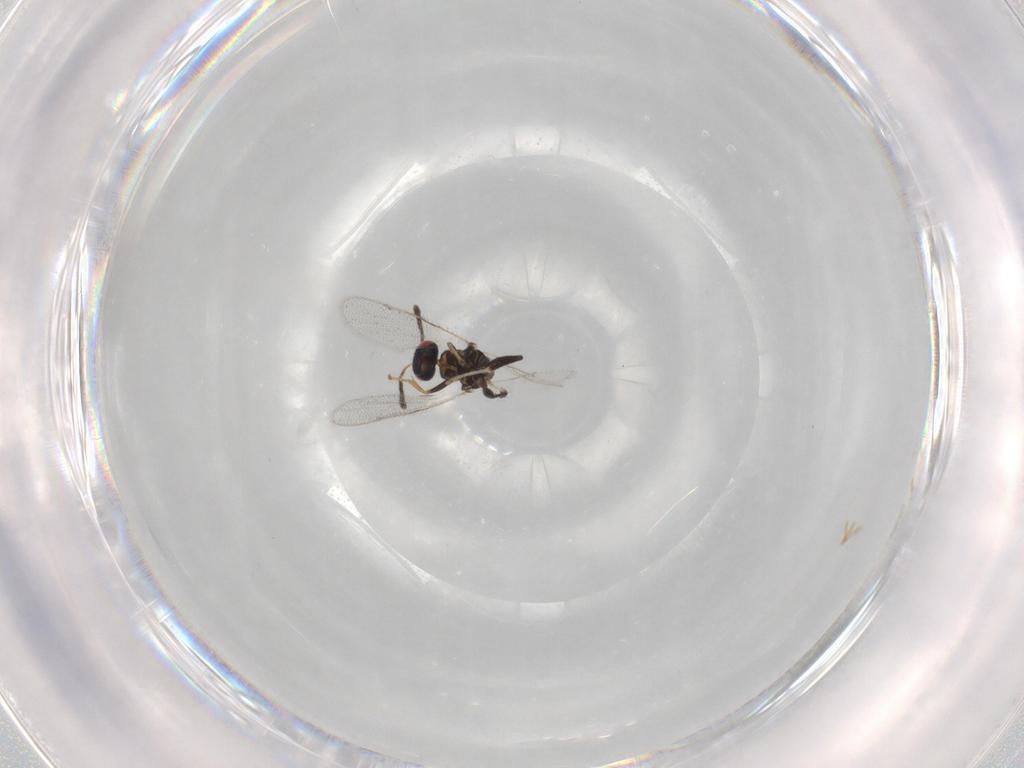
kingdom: Animalia
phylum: Arthropoda
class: Insecta
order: Hymenoptera
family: Torymidae
